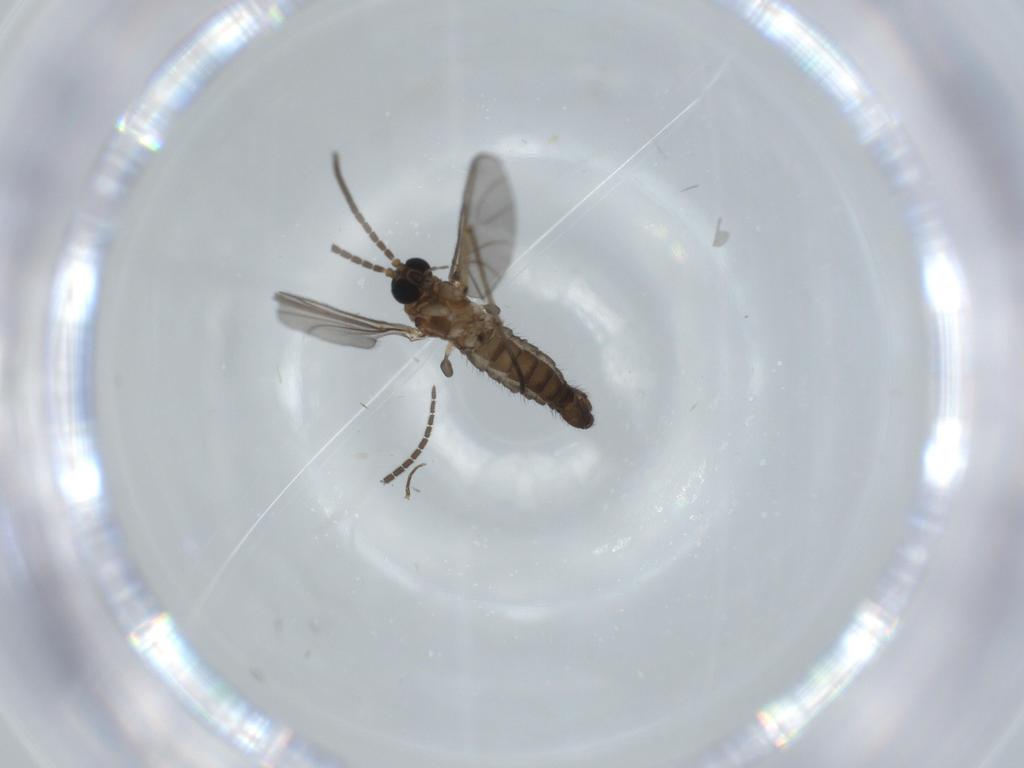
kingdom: Animalia
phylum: Arthropoda
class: Insecta
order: Diptera
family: Sciaridae
